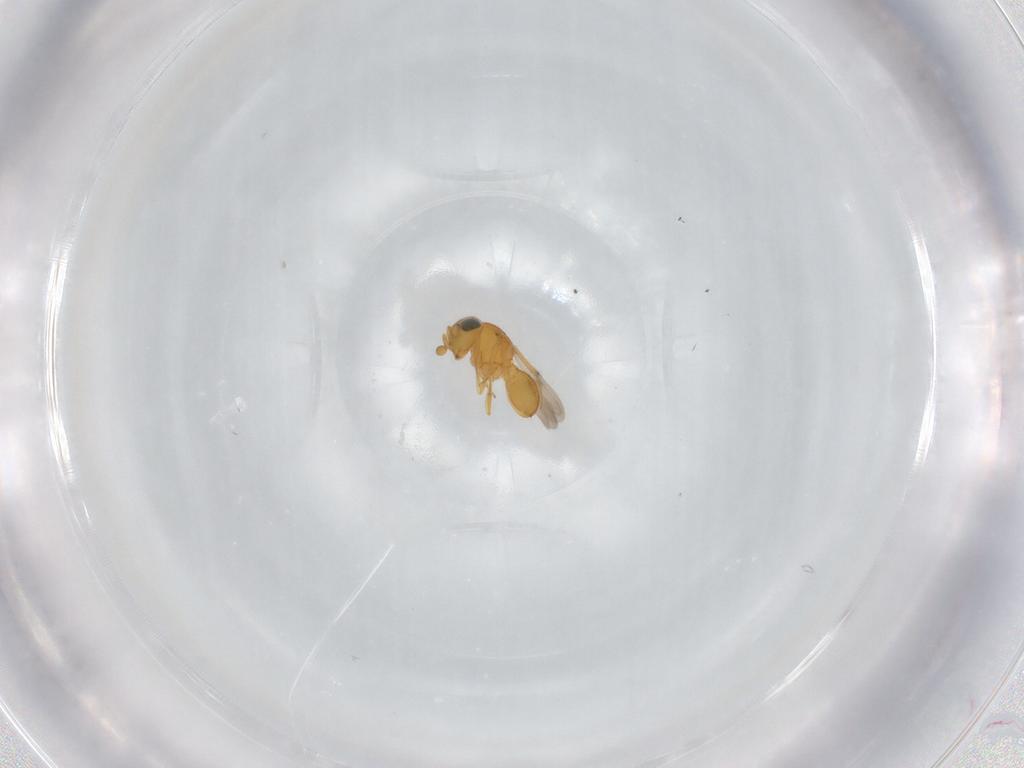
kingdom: Animalia
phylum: Arthropoda
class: Insecta
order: Hymenoptera
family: Scelionidae
